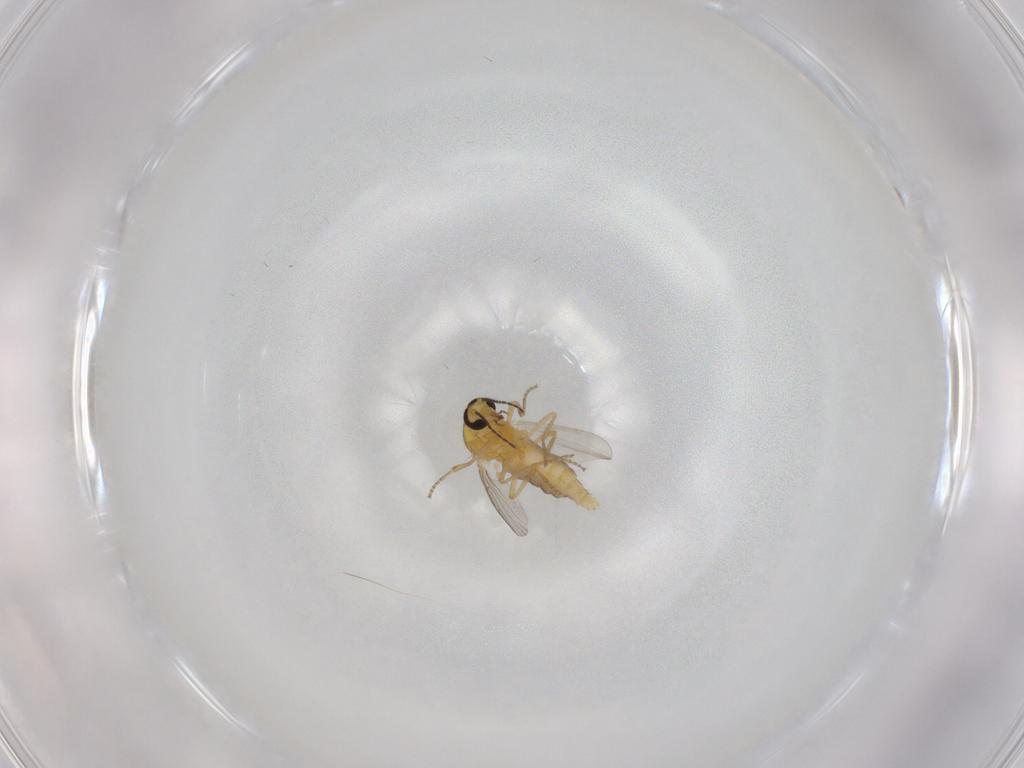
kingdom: Animalia
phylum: Arthropoda
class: Insecta
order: Diptera
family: Ceratopogonidae
